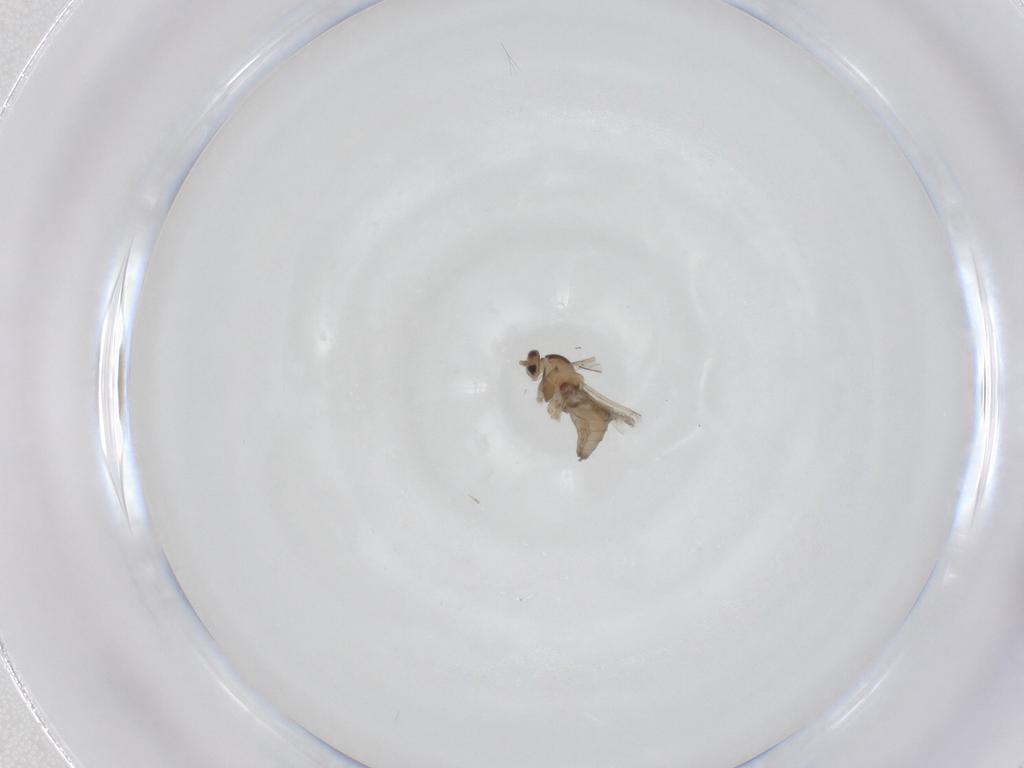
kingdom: Animalia
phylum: Arthropoda
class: Insecta
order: Diptera
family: Cecidomyiidae
